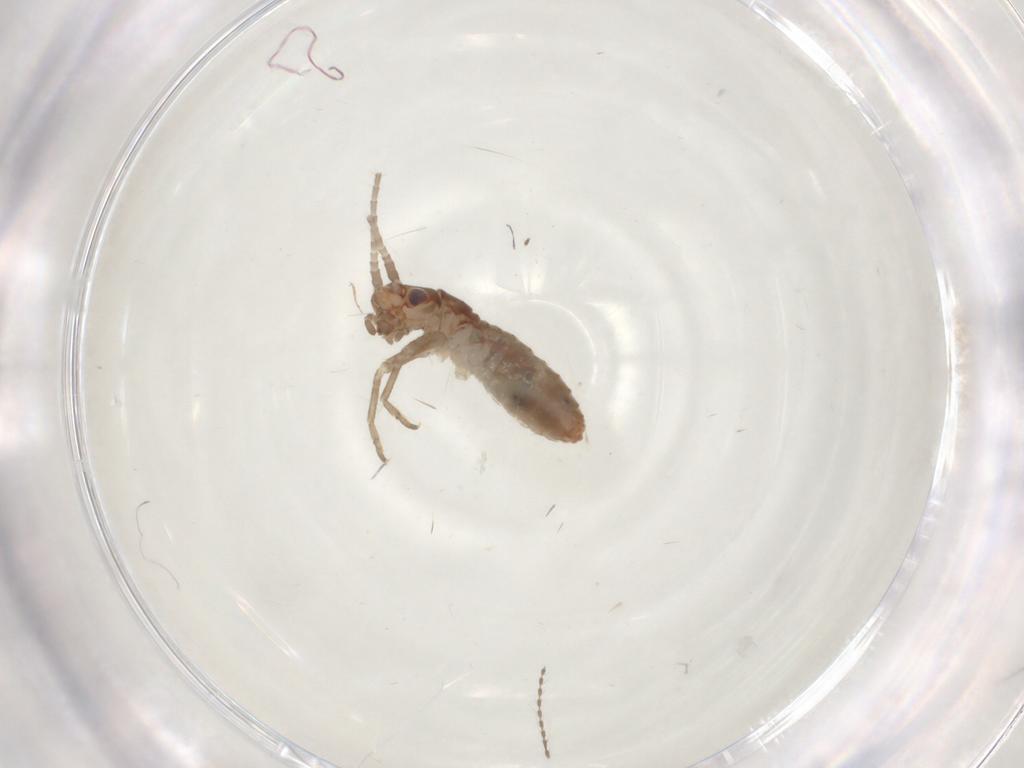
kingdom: Animalia
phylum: Arthropoda
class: Insecta
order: Orthoptera
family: Mogoplistidae
